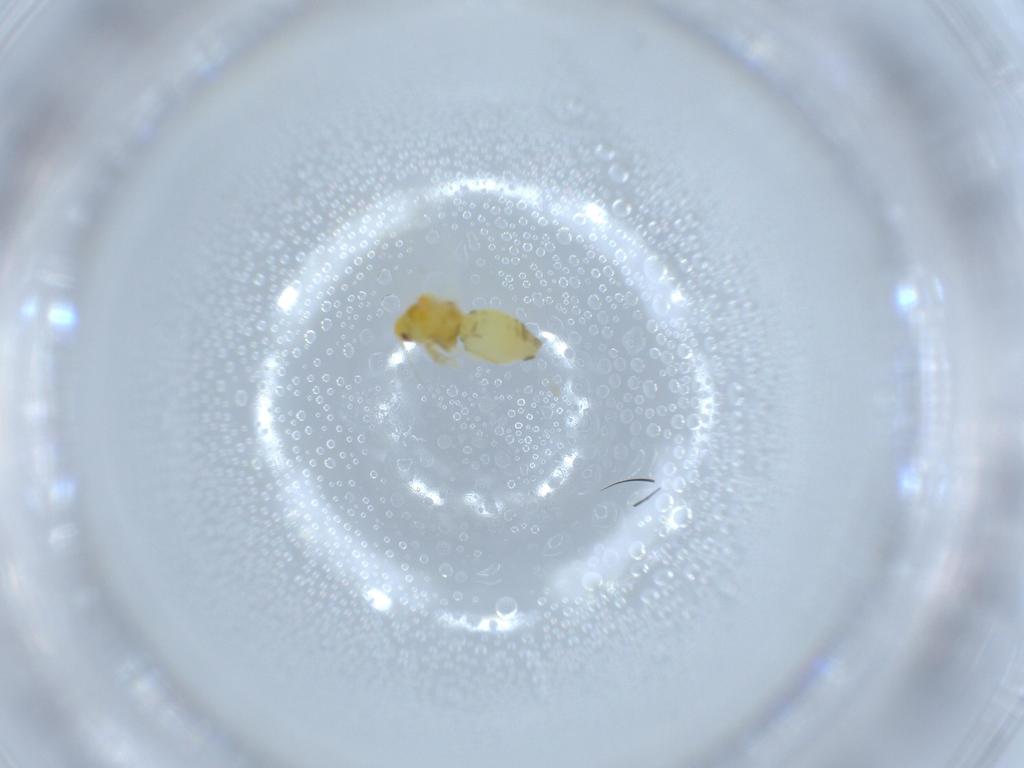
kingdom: Animalia
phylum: Arthropoda
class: Insecta
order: Hemiptera
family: Aleyrodidae
